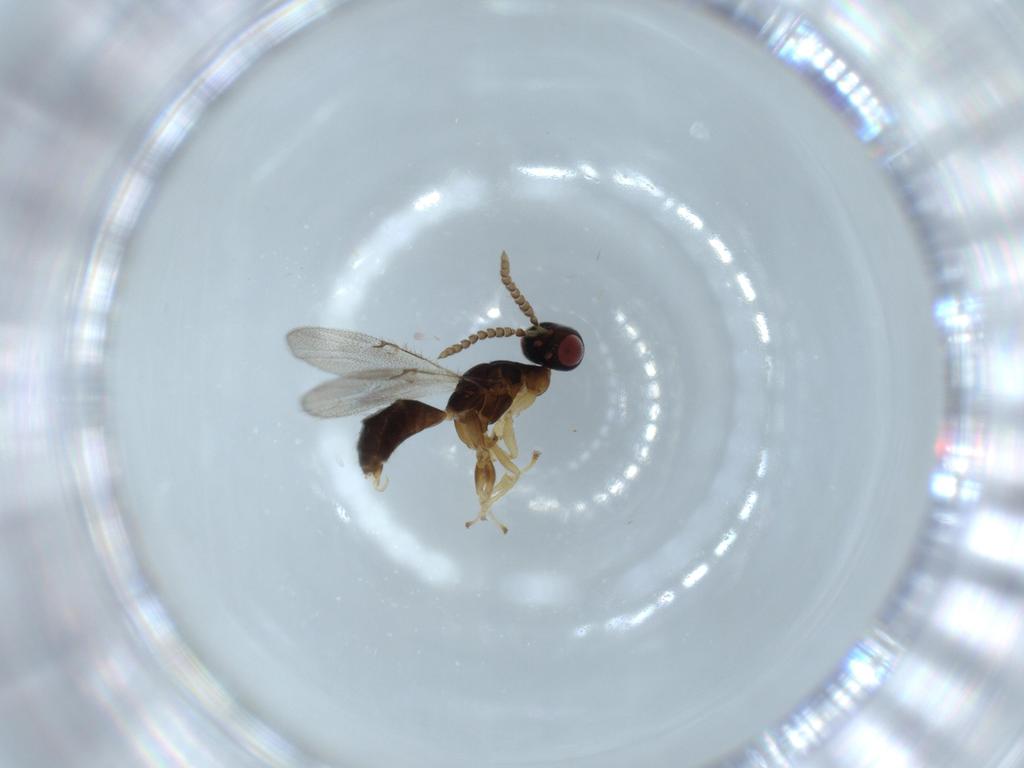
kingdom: Animalia
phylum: Arthropoda
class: Insecta
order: Hymenoptera
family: Agaonidae
